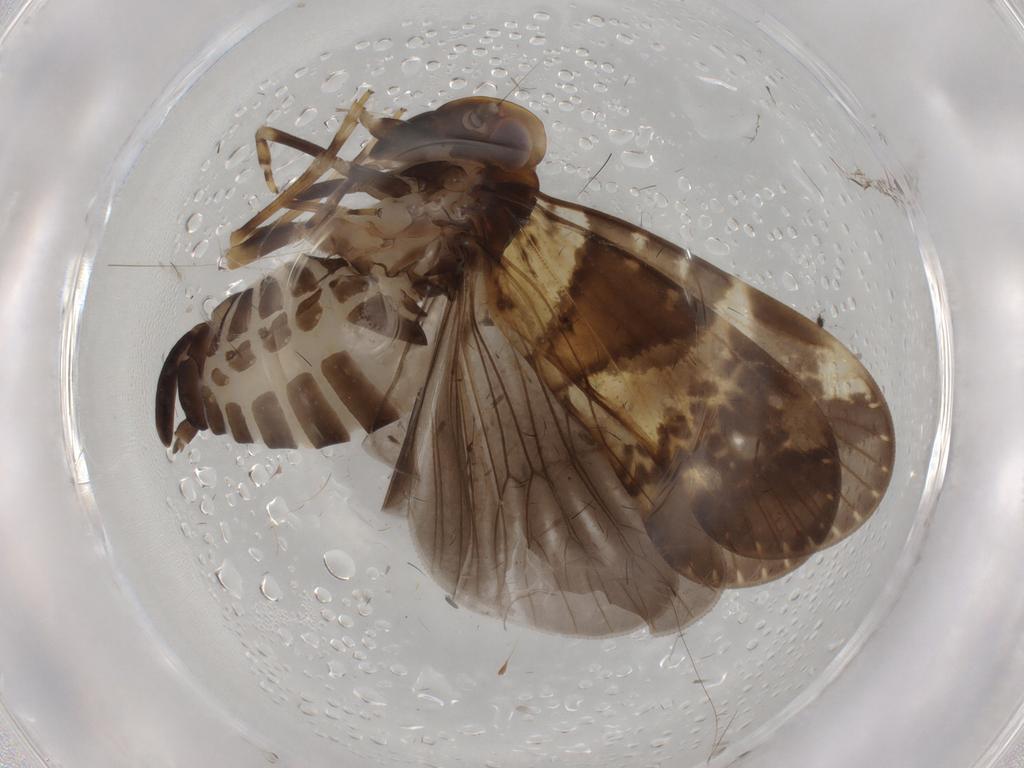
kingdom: Animalia
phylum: Arthropoda
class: Insecta
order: Hemiptera
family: Cixiidae
